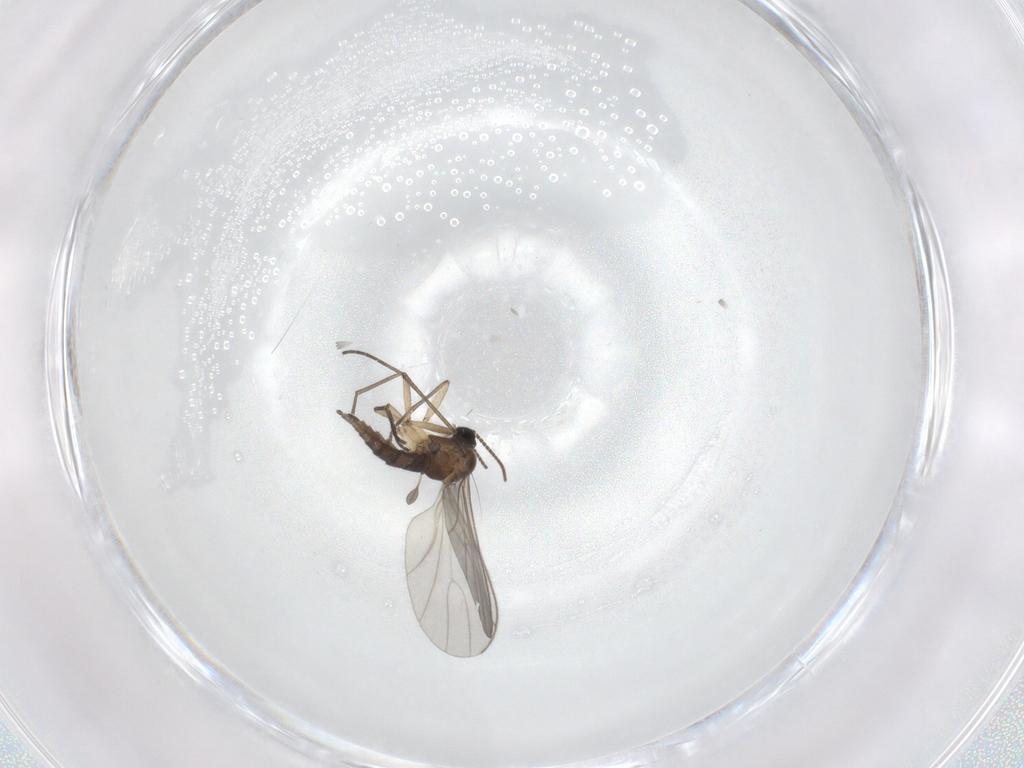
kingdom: Animalia
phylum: Arthropoda
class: Insecta
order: Diptera
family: Sciaridae
